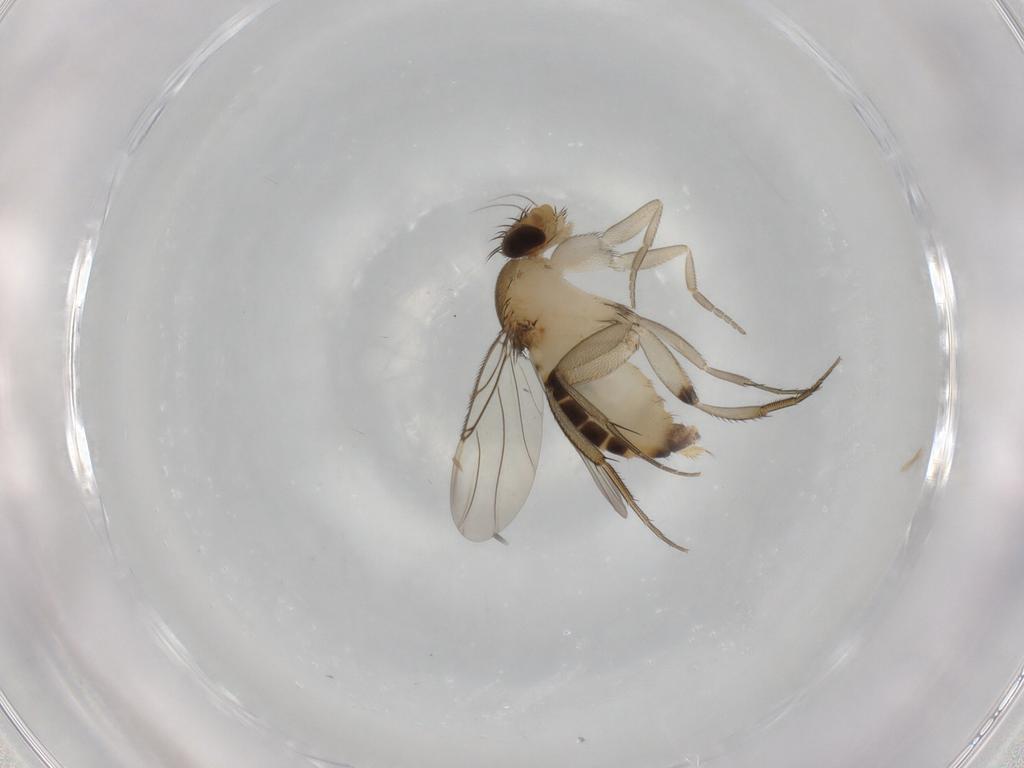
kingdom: Animalia
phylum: Arthropoda
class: Insecta
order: Diptera
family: Phoridae
